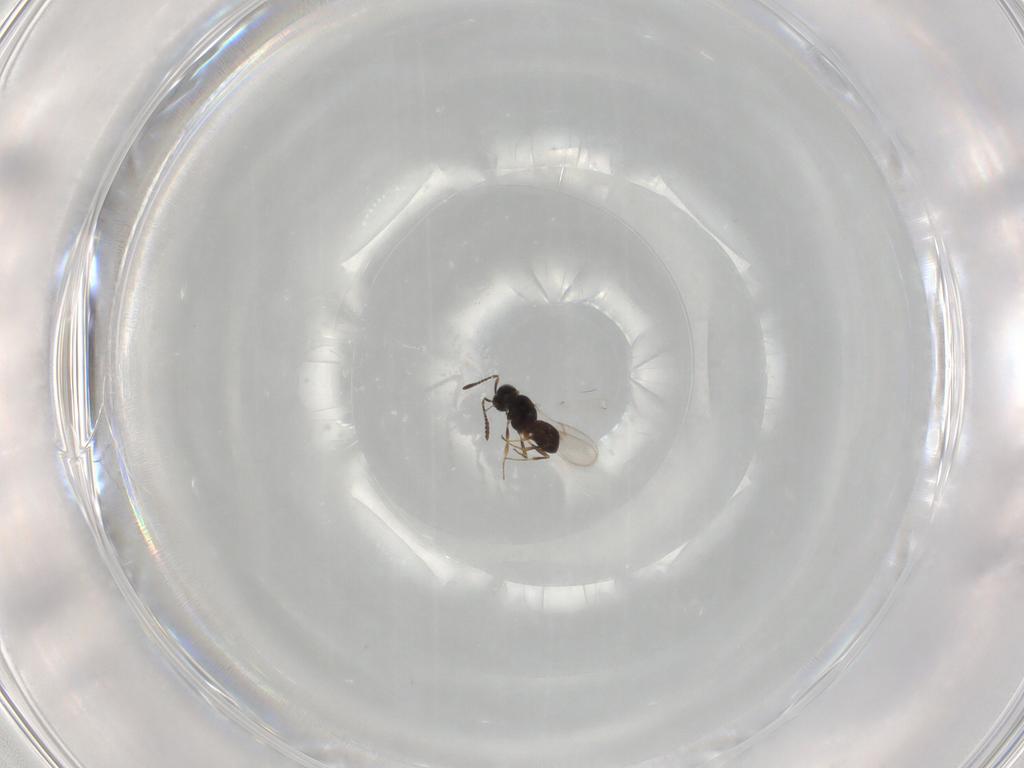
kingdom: Animalia
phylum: Arthropoda
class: Insecta
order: Hymenoptera
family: Scelionidae
